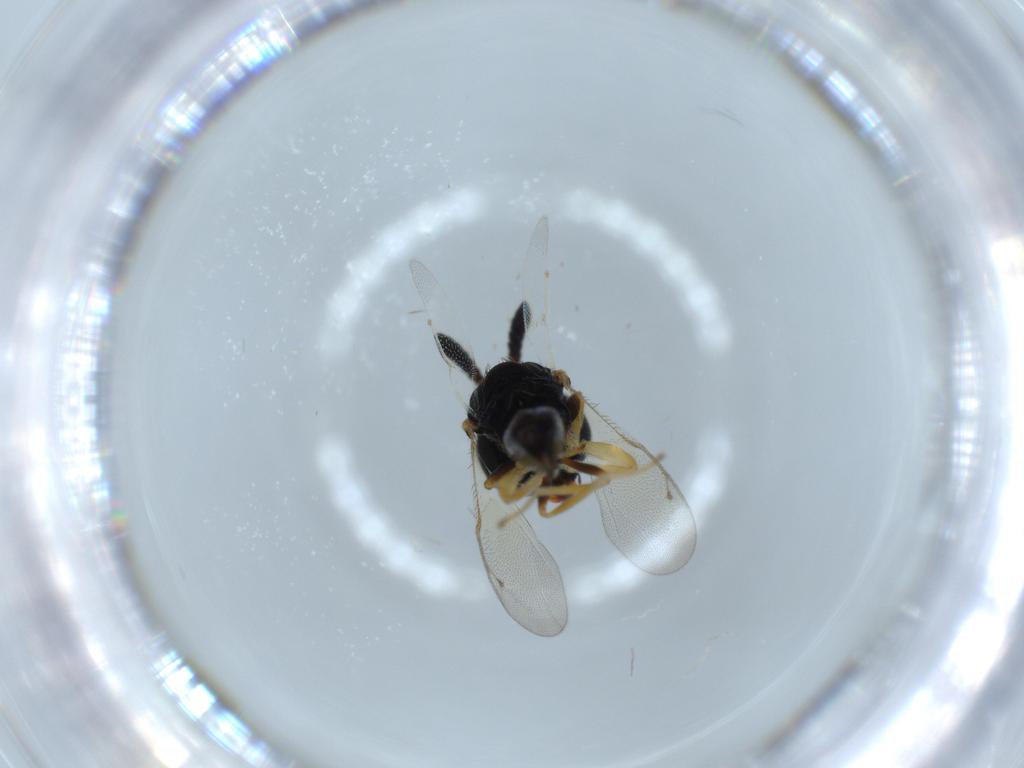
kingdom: Animalia
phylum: Arthropoda
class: Insecta
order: Hymenoptera
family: Pteromalidae
